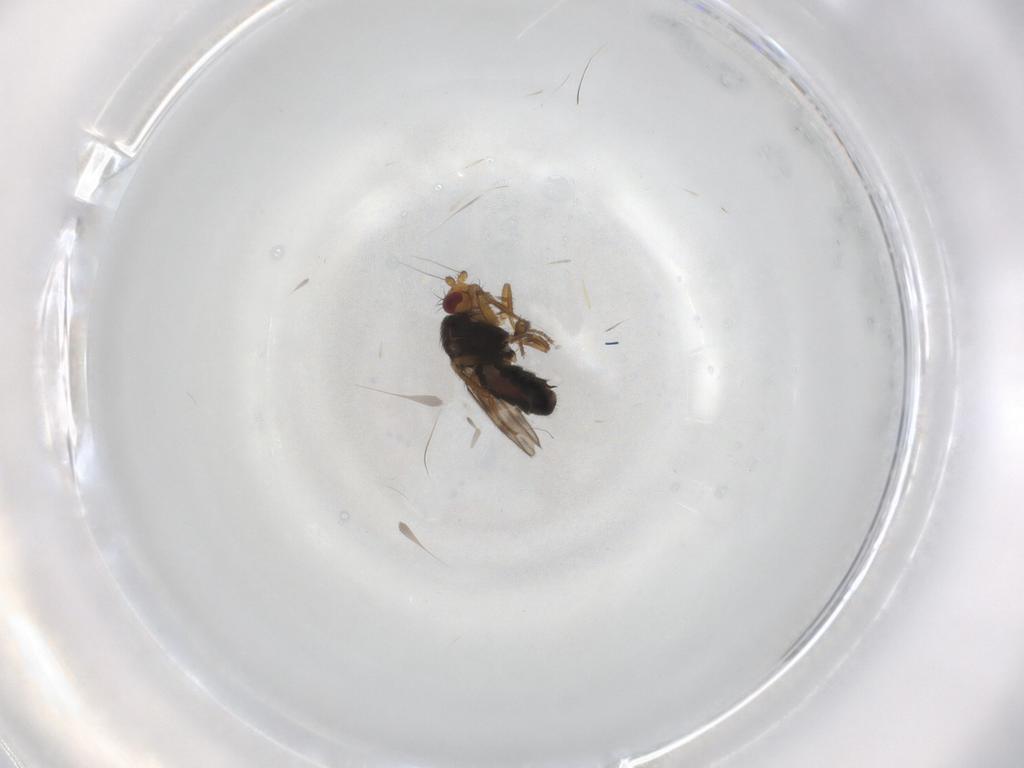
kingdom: Animalia
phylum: Arthropoda
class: Insecta
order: Diptera
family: Sphaeroceridae
